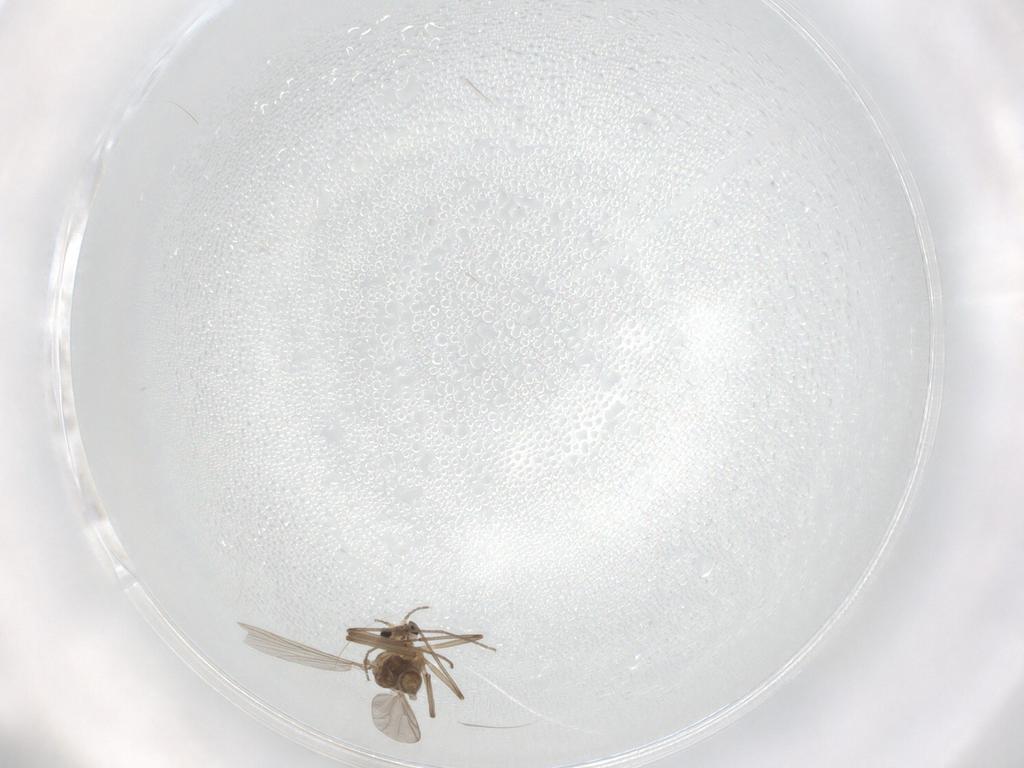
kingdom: Animalia
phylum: Arthropoda
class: Insecta
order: Diptera
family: Chironomidae
